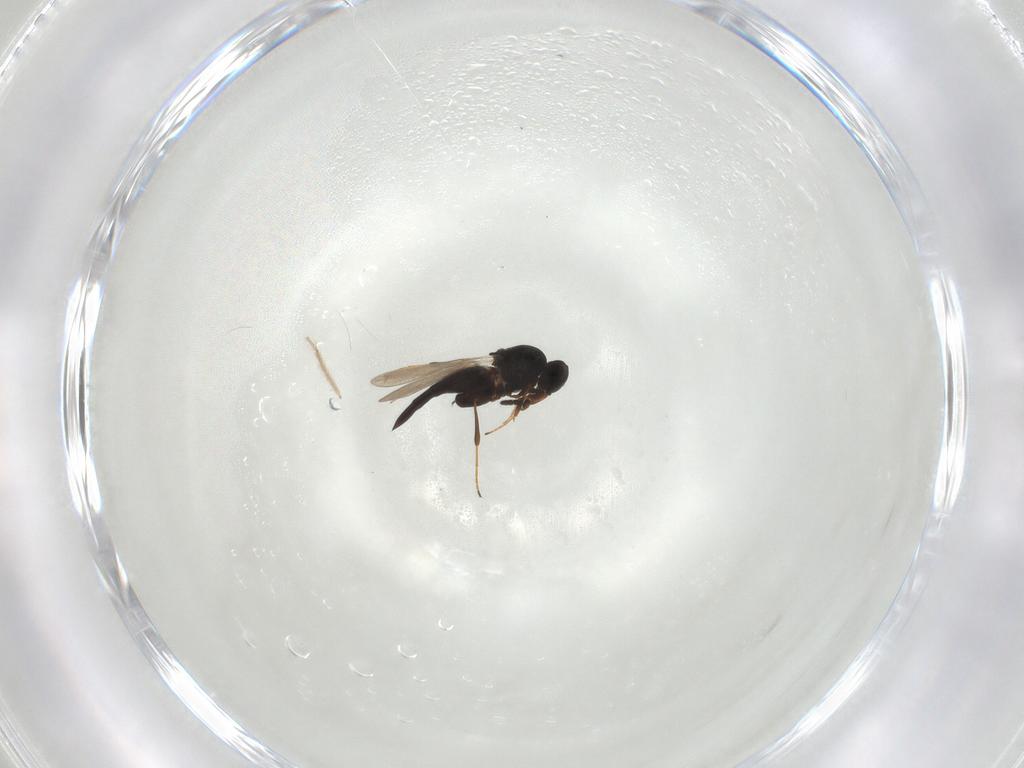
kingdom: Animalia
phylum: Arthropoda
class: Insecta
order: Hymenoptera
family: Platygastridae
